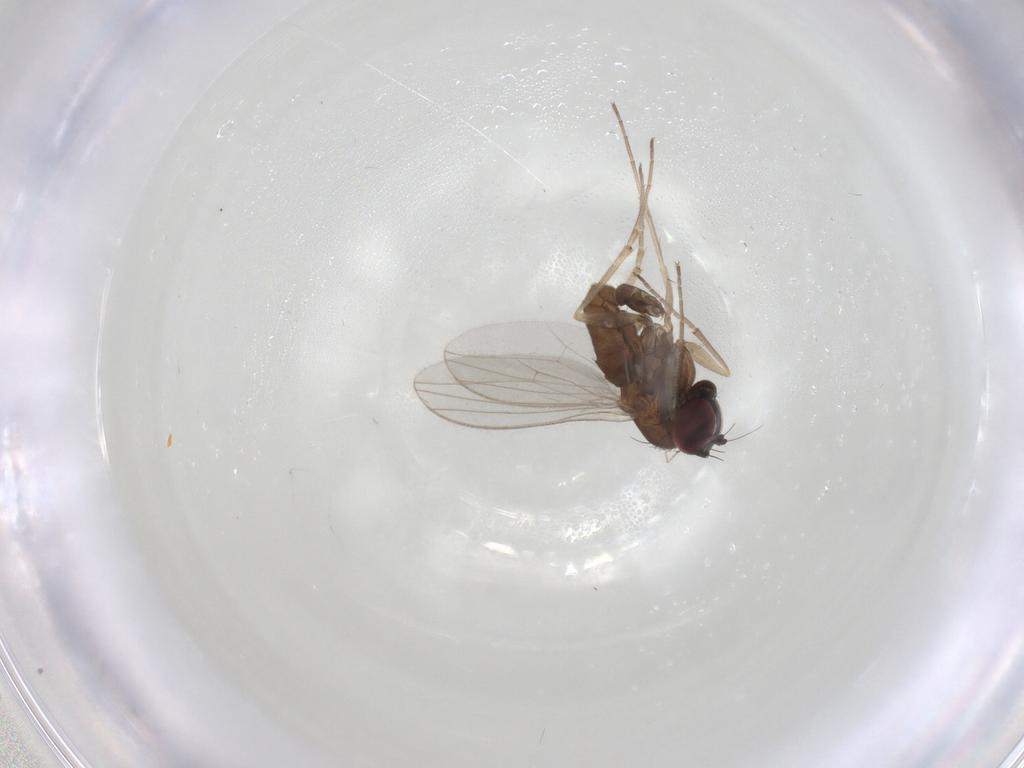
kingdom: Animalia
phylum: Arthropoda
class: Insecta
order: Diptera
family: Dolichopodidae
